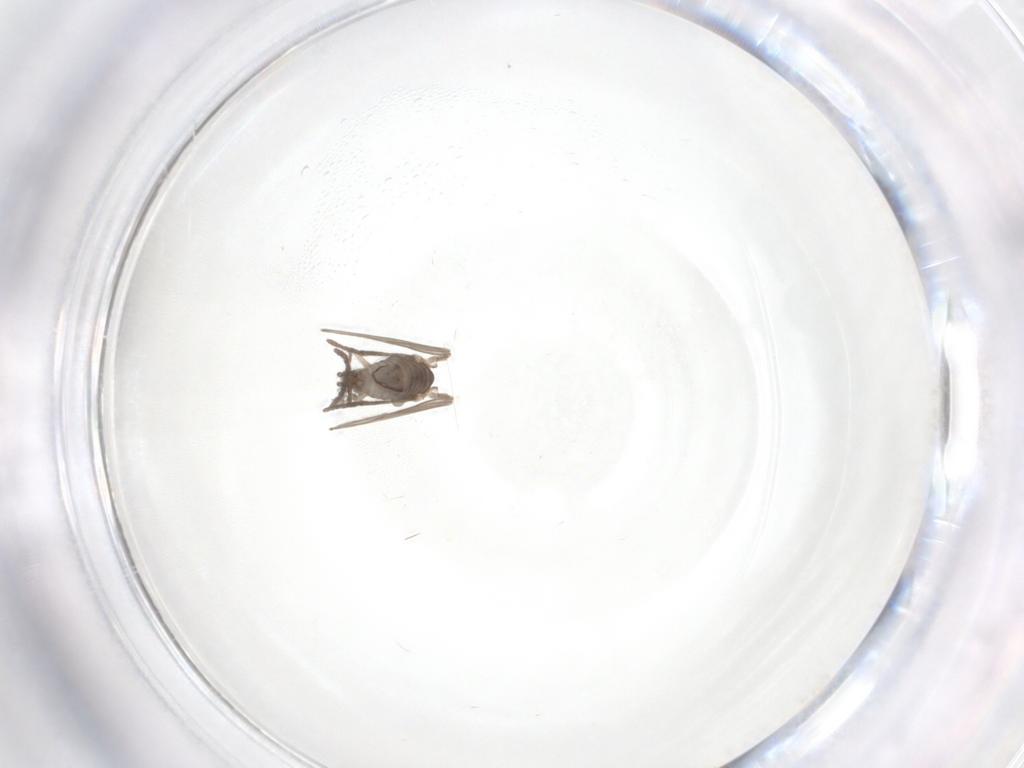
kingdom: Animalia
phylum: Arthropoda
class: Insecta
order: Diptera
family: Psychodidae
